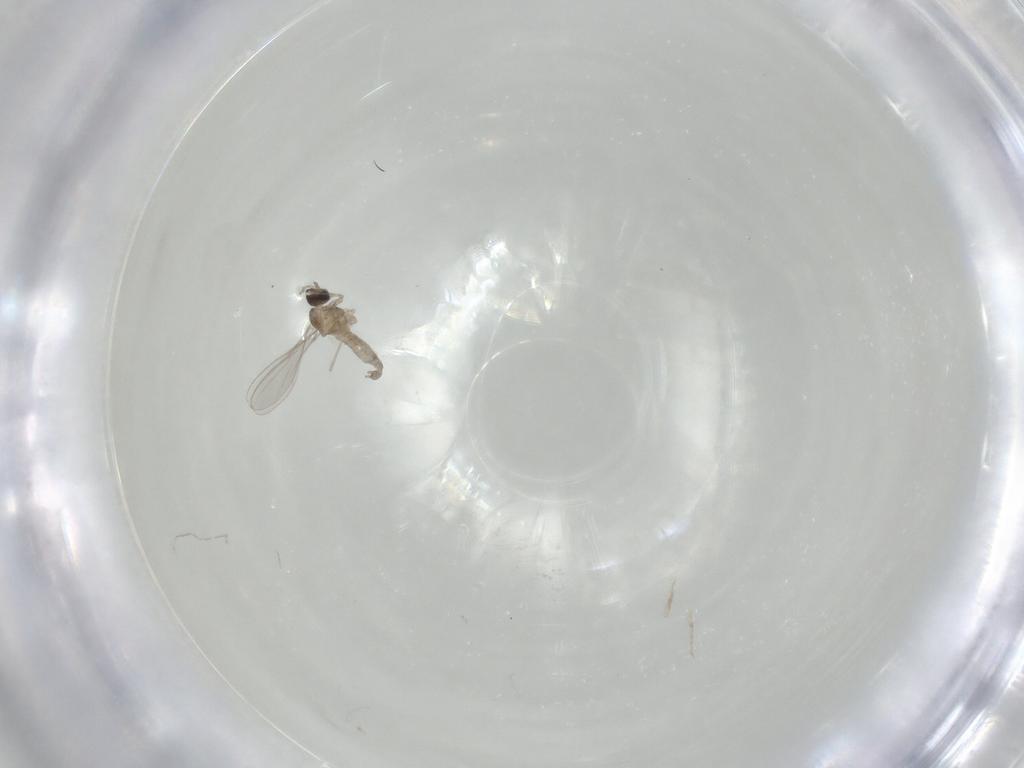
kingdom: Animalia
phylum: Arthropoda
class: Insecta
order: Diptera
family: Cecidomyiidae
